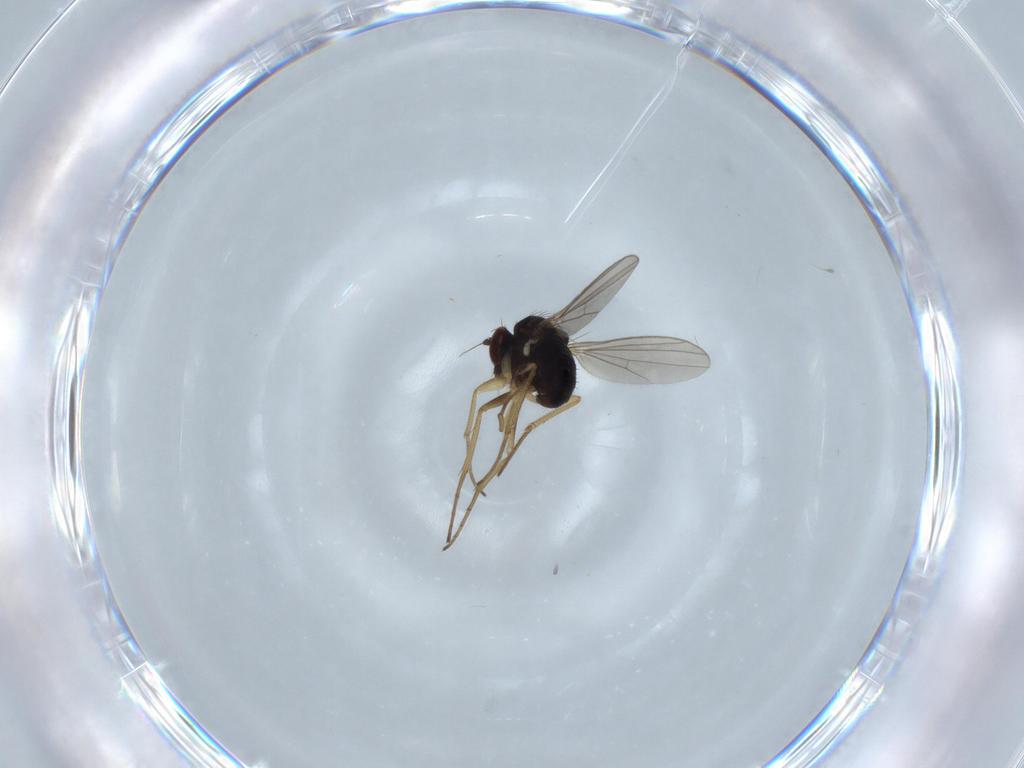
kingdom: Animalia
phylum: Arthropoda
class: Insecta
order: Diptera
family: Dolichopodidae
